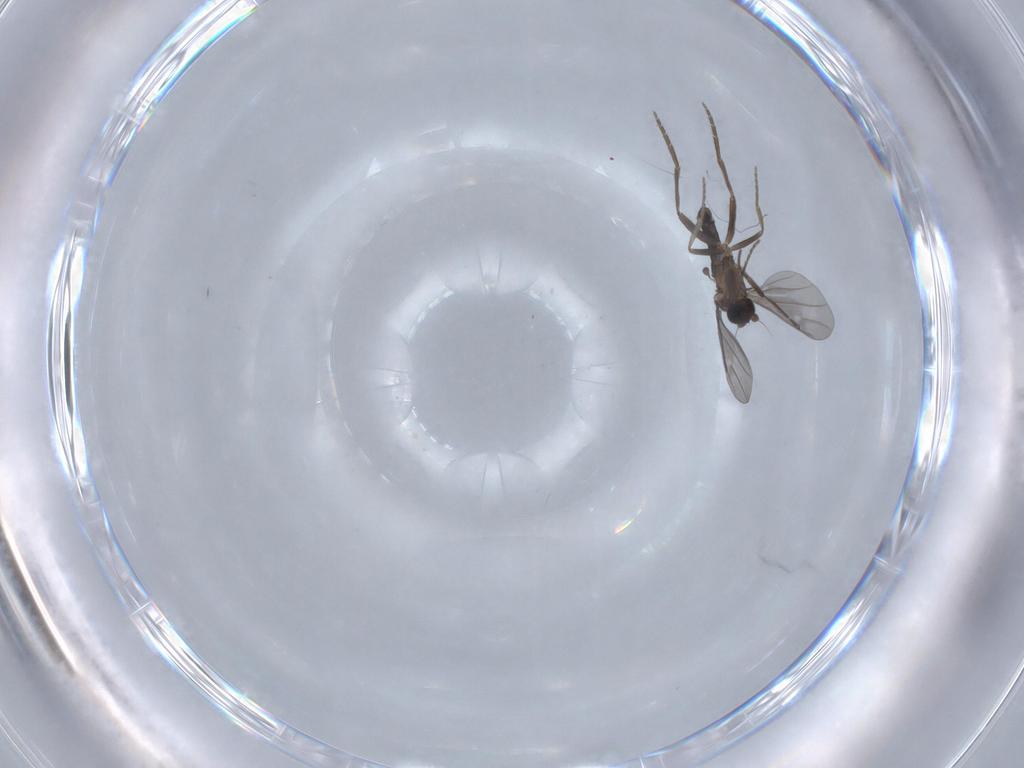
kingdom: Animalia
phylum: Arthropoda
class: Insecta
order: Diptera
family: Phoridae
